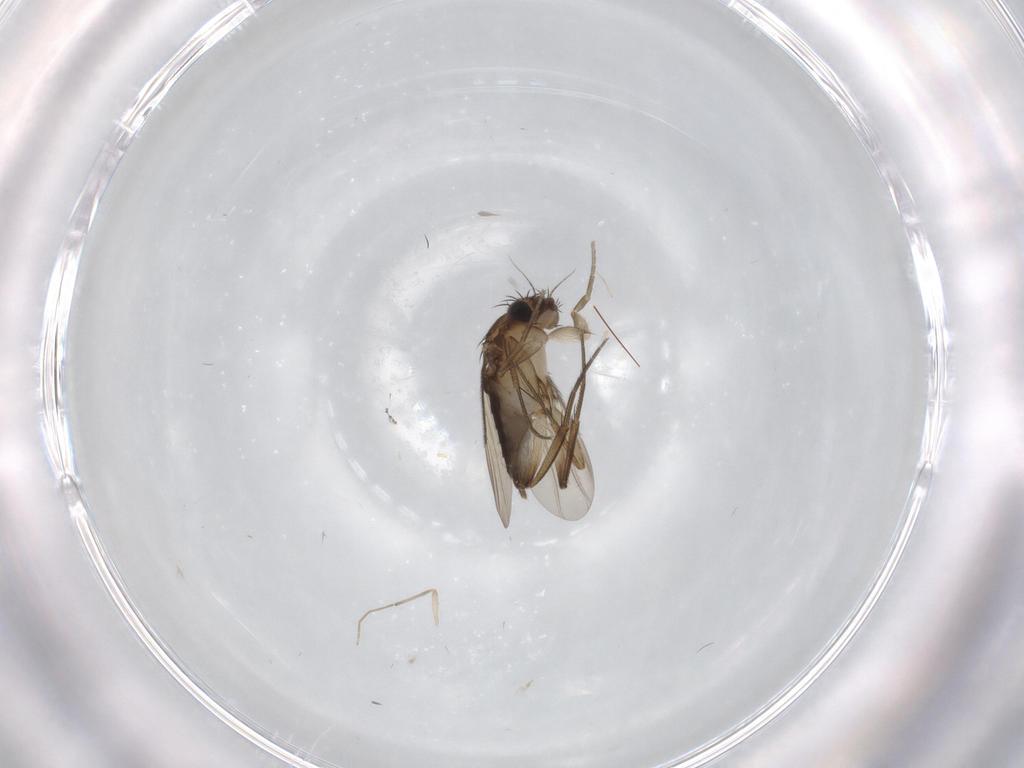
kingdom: Animalia
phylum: Arthropoda
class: Insecta
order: Diptera
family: Phoridae
